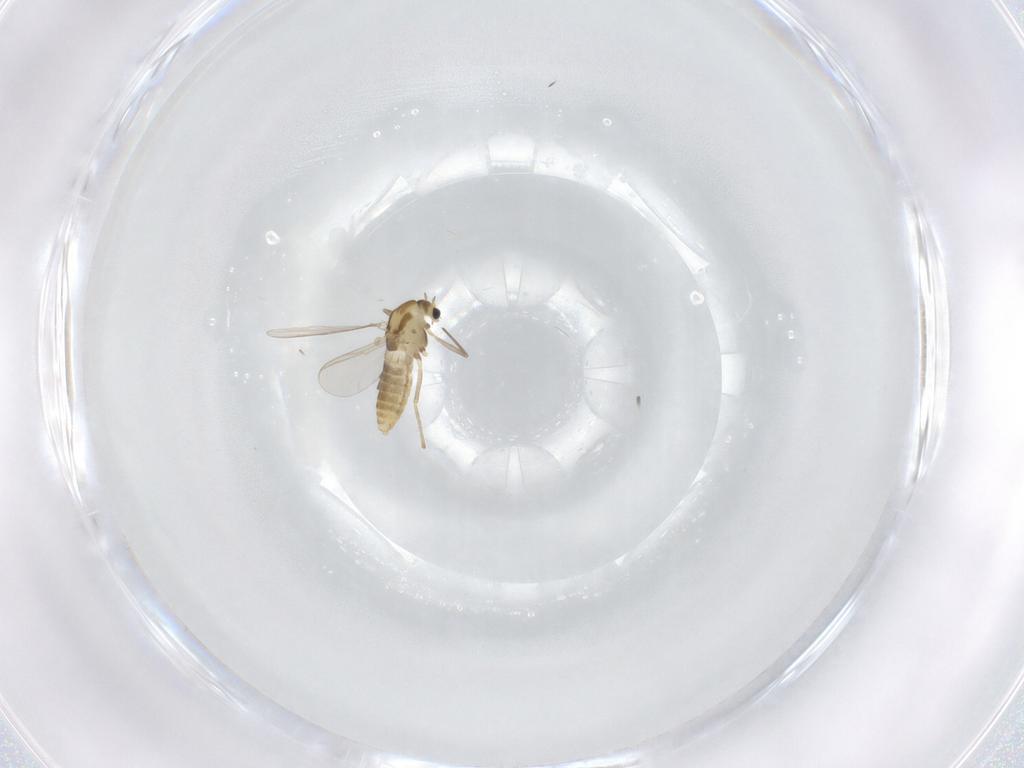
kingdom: Animalia
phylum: Arthropoda
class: Insecta
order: Diptera
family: Chironomidae
